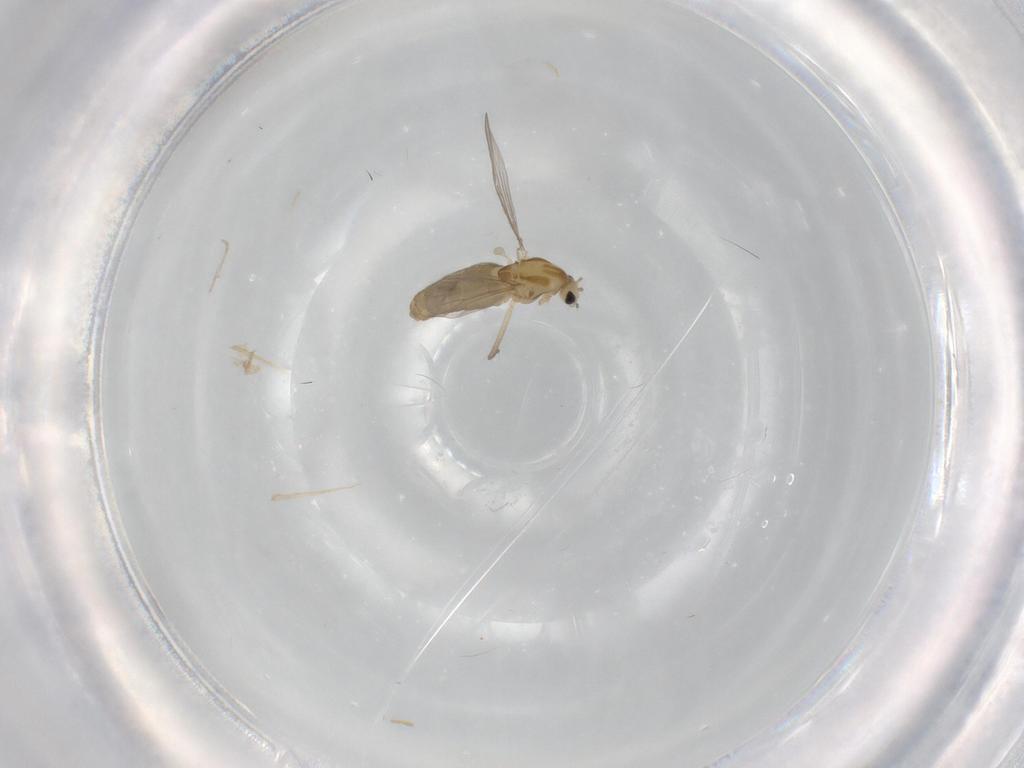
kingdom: Animalia
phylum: Arthropoda
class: Insecta
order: Diptera
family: Chironomidae
